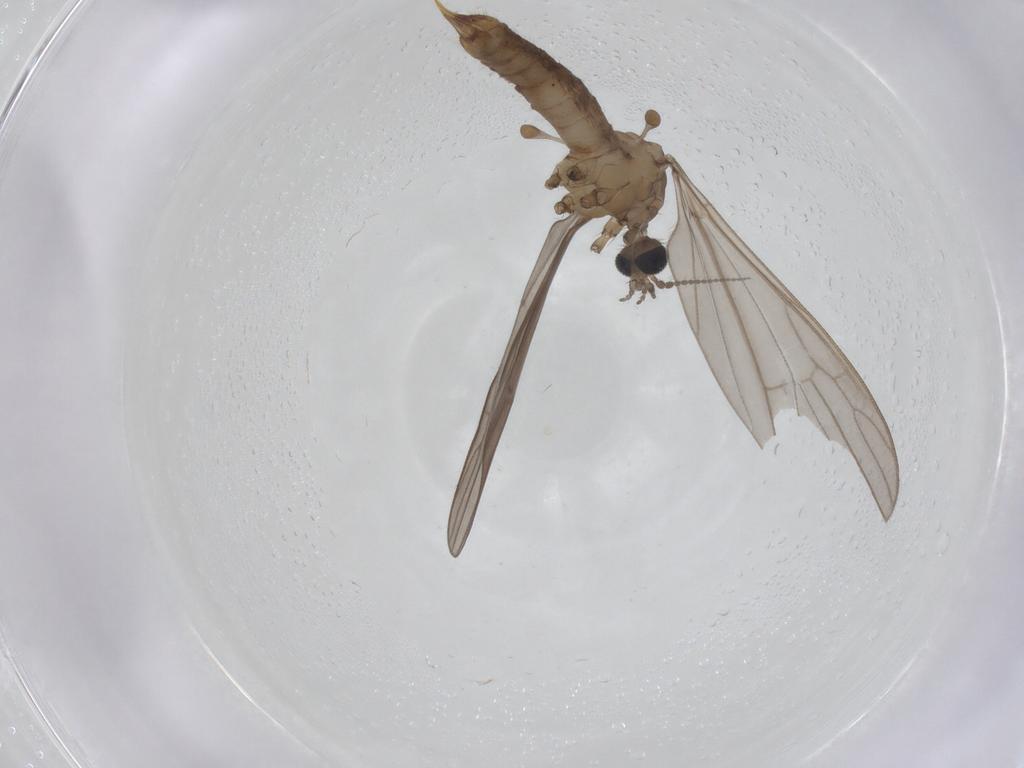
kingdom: Animalia
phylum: Arthropoda
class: Insecta
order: Diptera
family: Limoniidae
